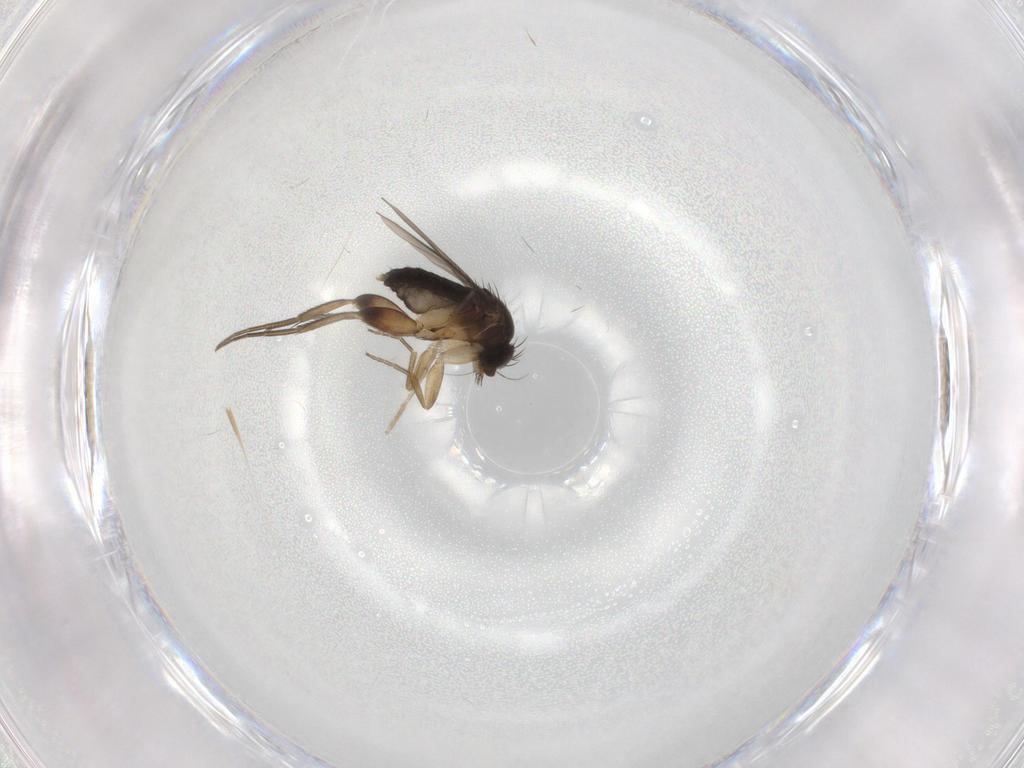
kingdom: Animalia
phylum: Arthropoda
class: Insecta
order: Diptera
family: Phoridae
